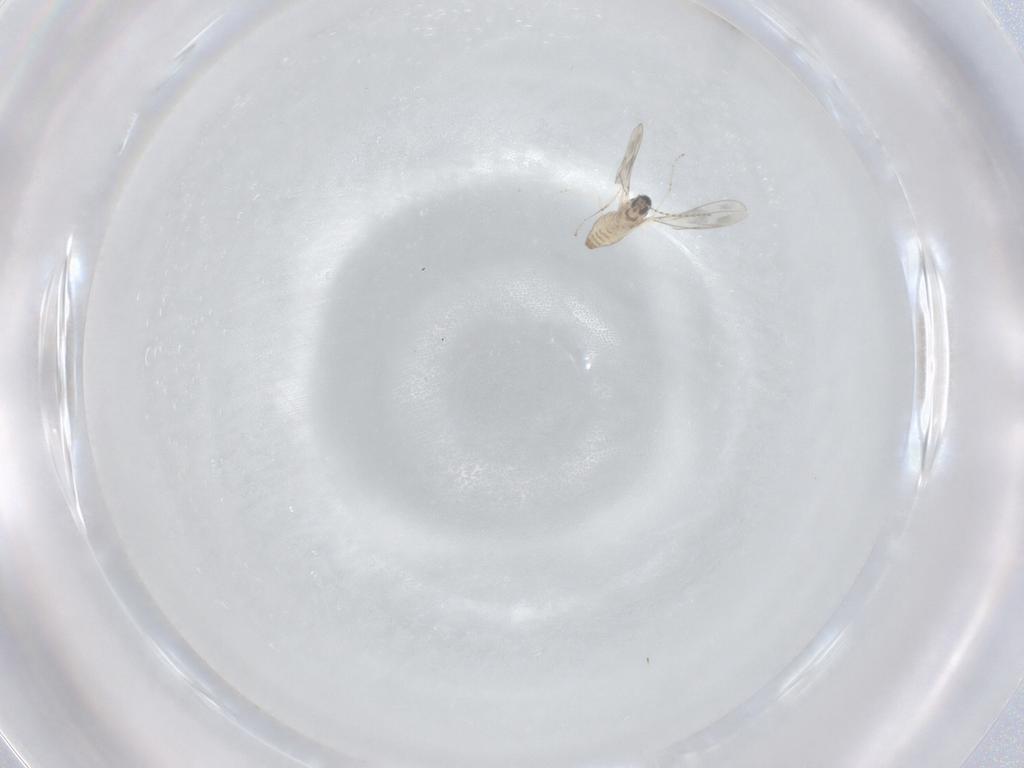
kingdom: Animalia
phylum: Arthropoda
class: Insecta
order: Diptera
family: Cecidomyiidae
